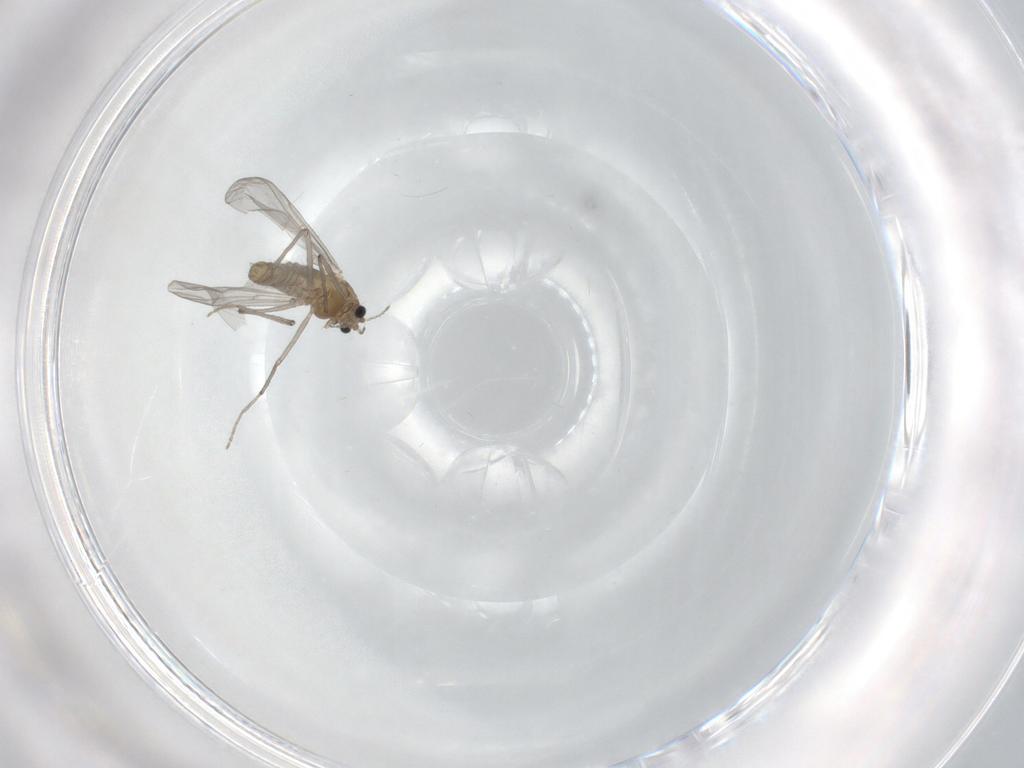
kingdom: Animalia
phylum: Arthropoda
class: Insecta
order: Diptera
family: Chironomidae
